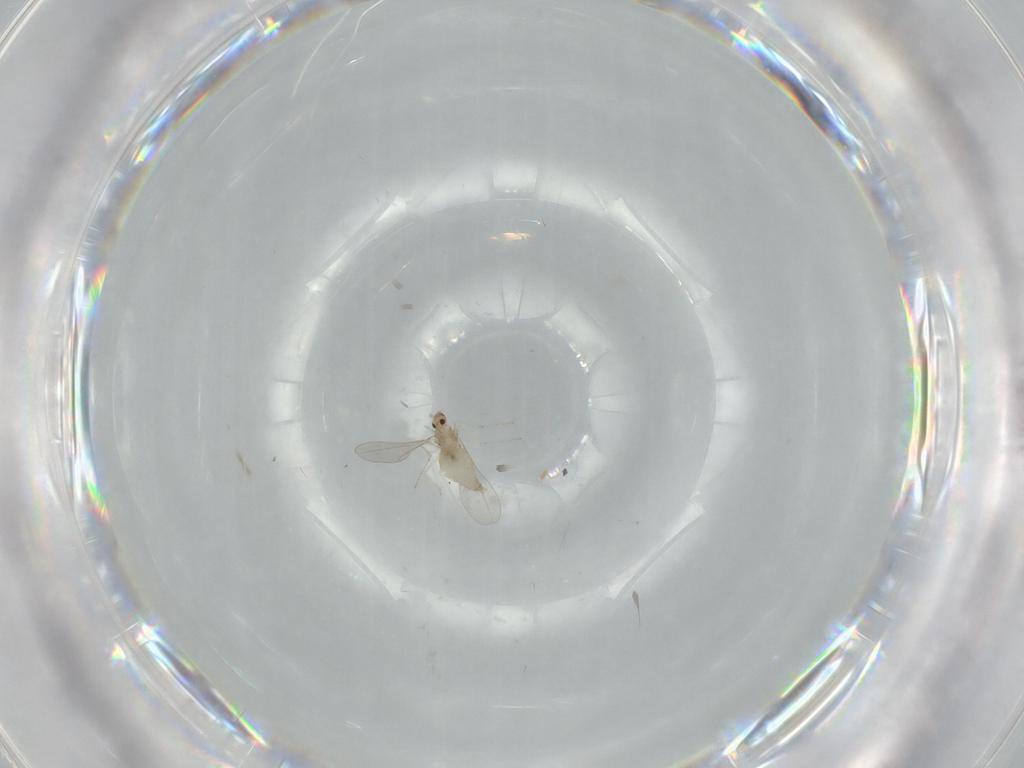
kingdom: Animalia
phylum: Arthropoda
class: Insecta
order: Diptera
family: Cecidomyiidae
